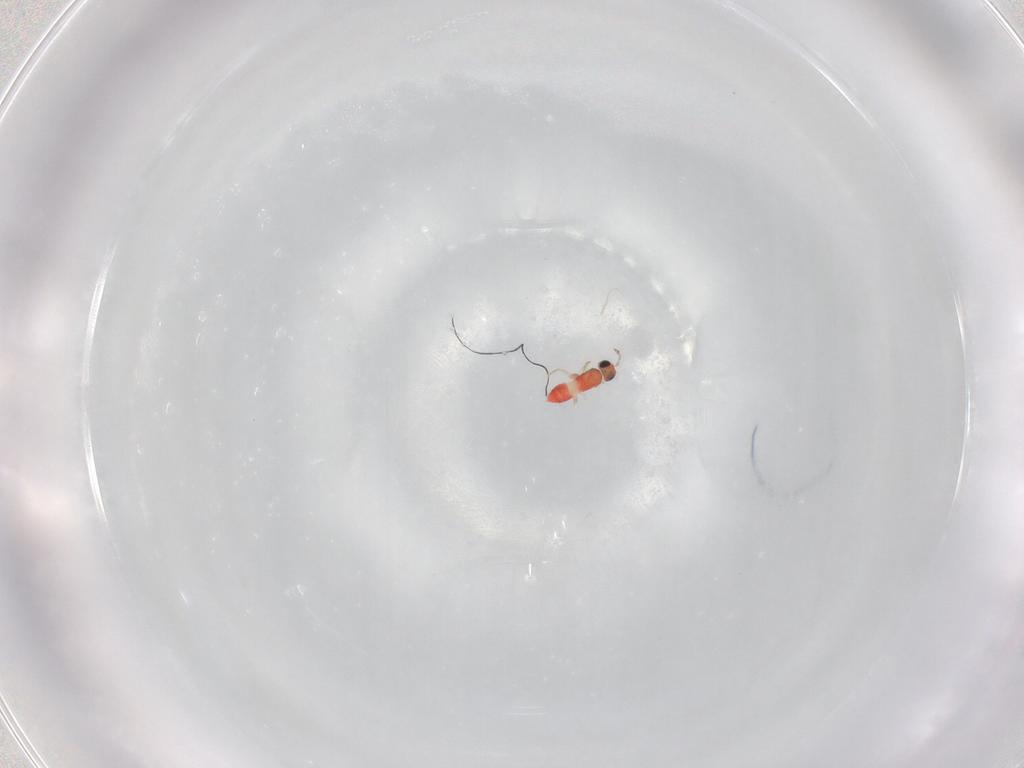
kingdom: Animalia
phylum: Arthropoda
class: Insecta
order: Hymenoptera
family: Trichogrammatidae
